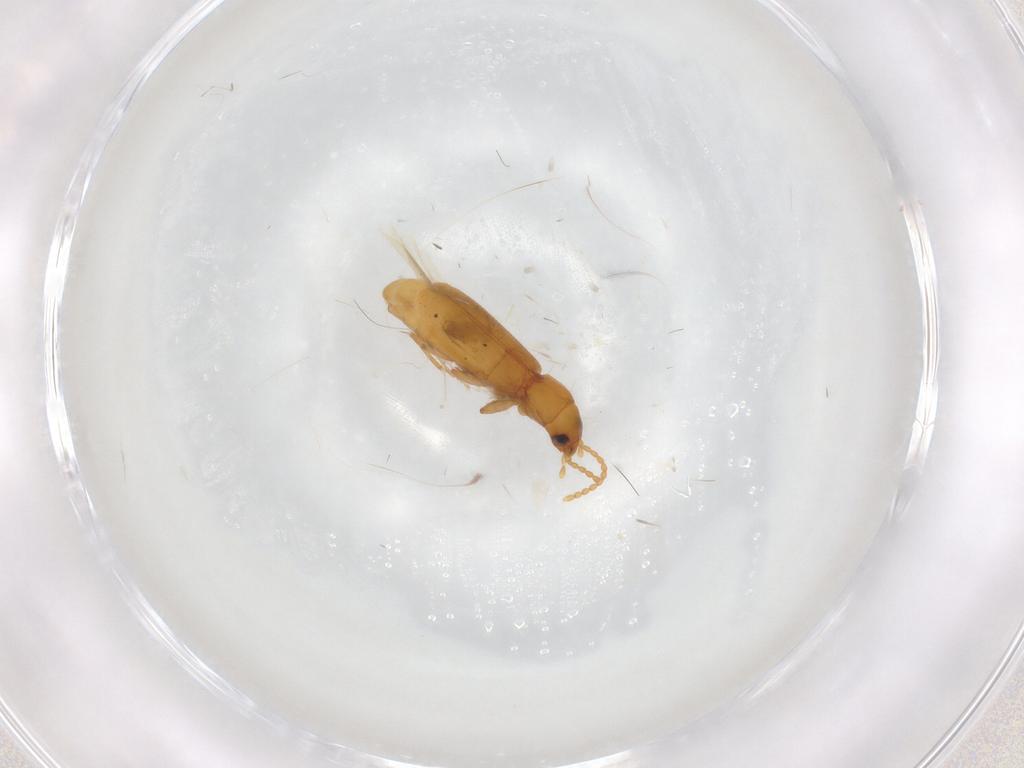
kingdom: Animalia
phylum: Arthropoda
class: Insecta
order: Coleoptera
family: Carabidae
